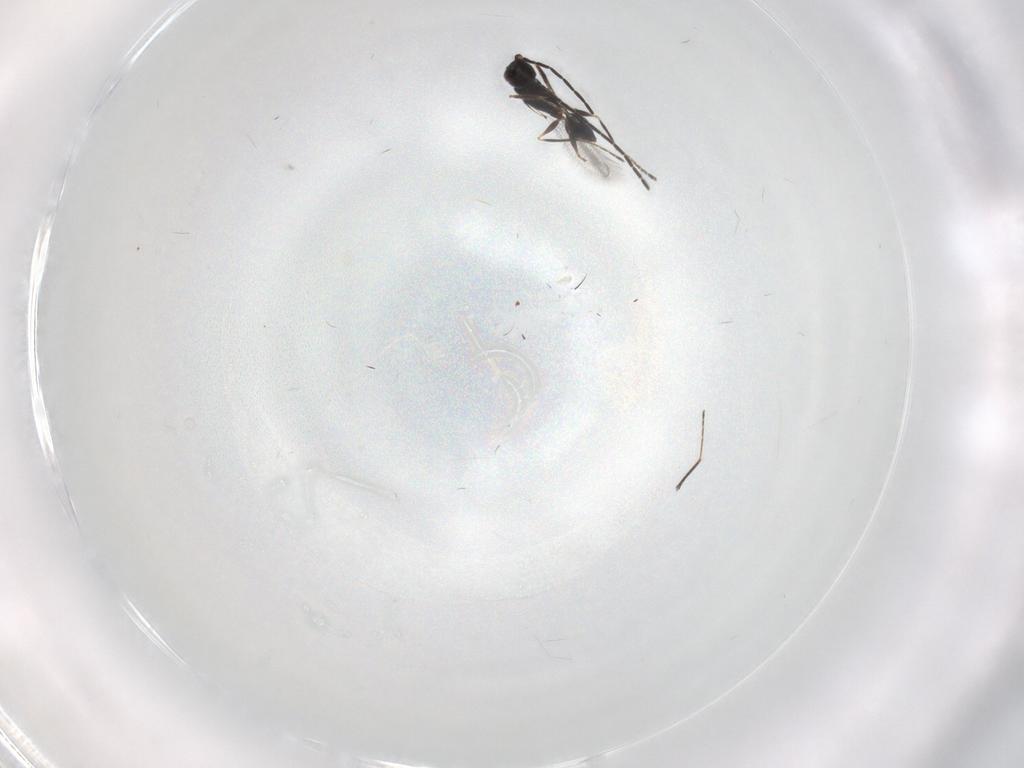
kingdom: Animalia
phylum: Arthropoda
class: Insecta
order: Hymenoptera
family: Mymaridae
